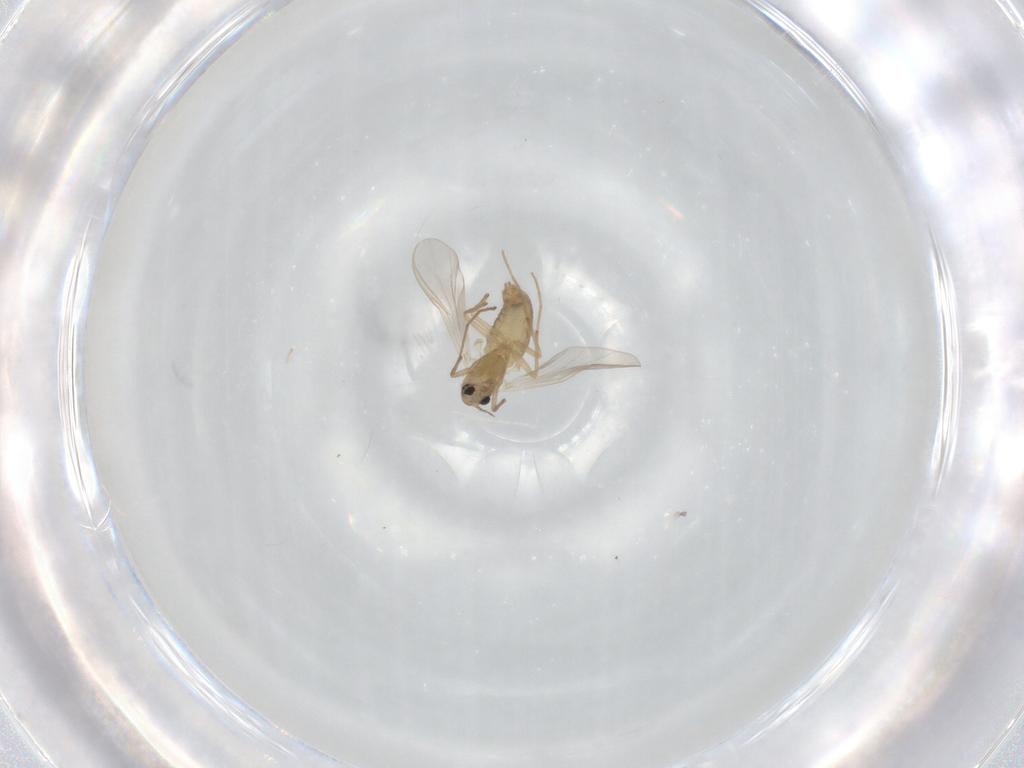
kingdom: Animalia
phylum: Arthropoda
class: Insecta
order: Diptera
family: Chironomidae
